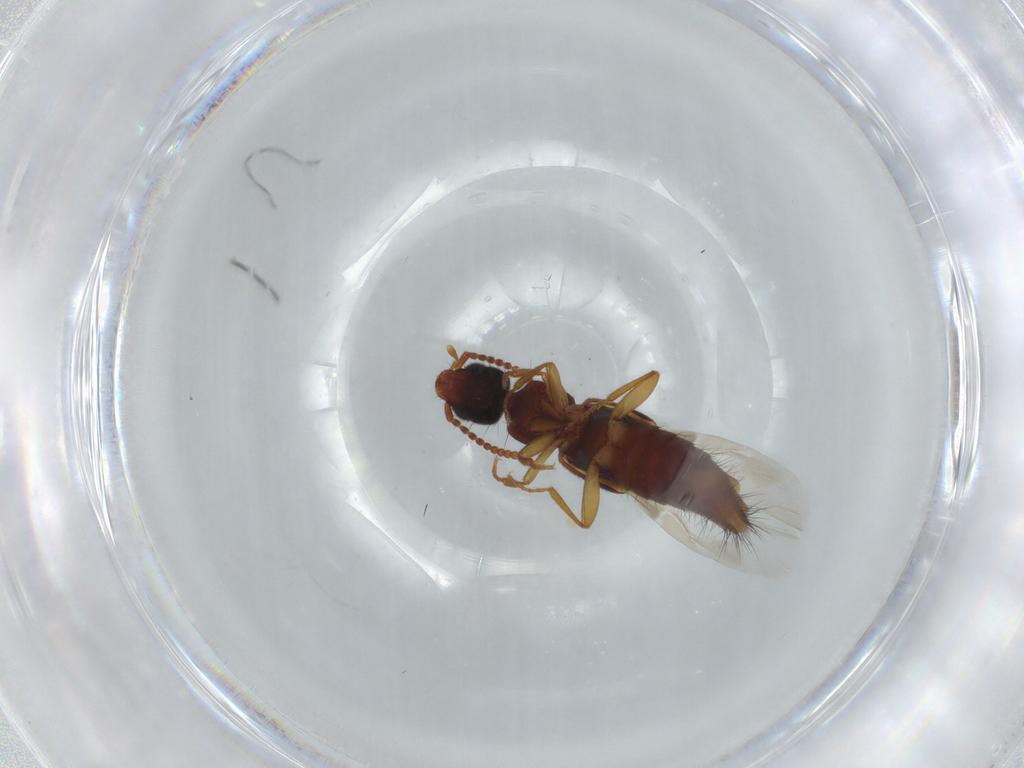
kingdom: Animalia
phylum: Arthropoda
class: Insecta
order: Coleoptera
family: Staphylinidae
